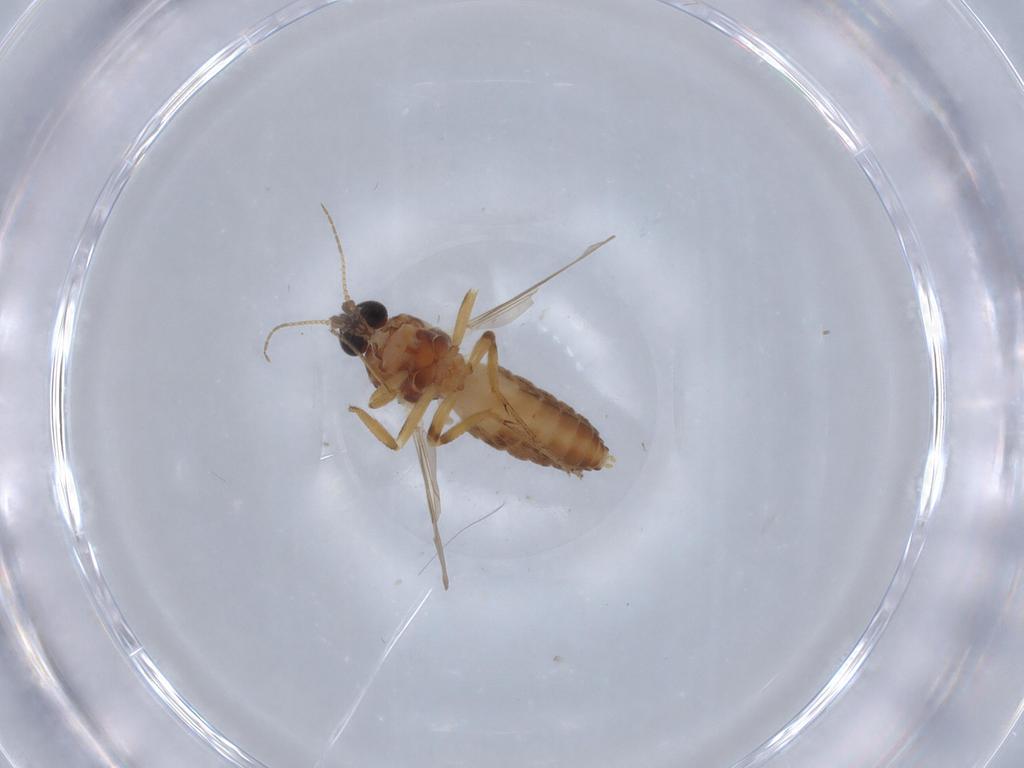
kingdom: Animalia
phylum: Arthropoda
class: Insecta
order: Diptera
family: Ceratopogonidae
